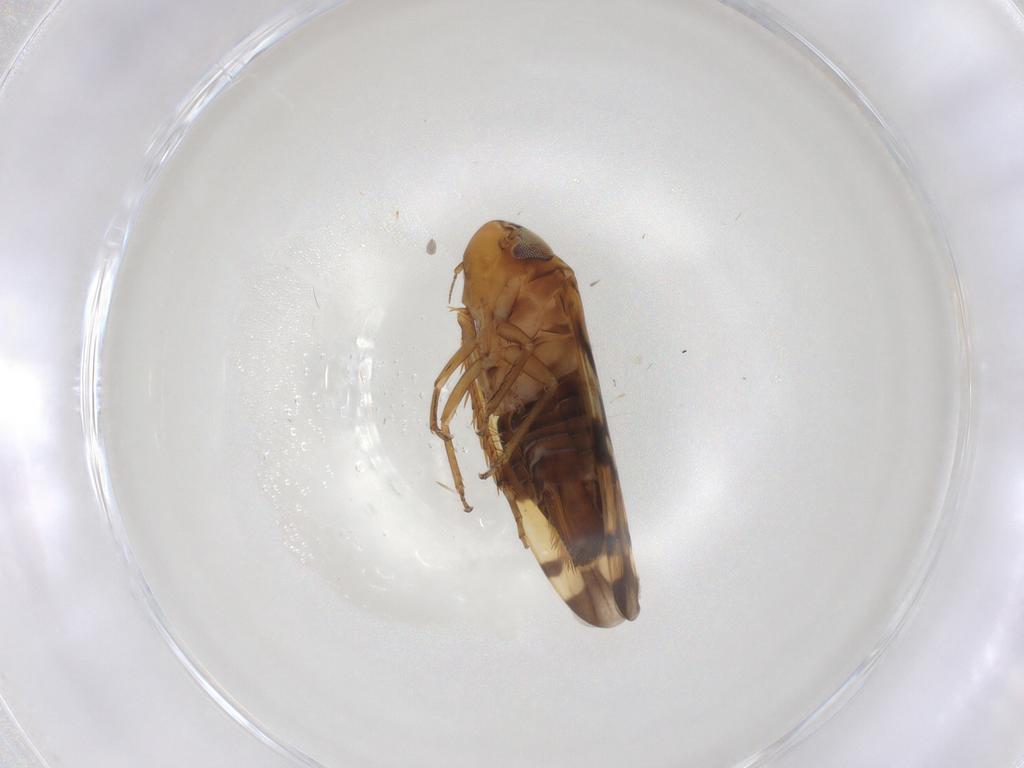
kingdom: Animalia
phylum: Arthropoda
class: Insecta
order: Hemiptera
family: Cicadellidae
